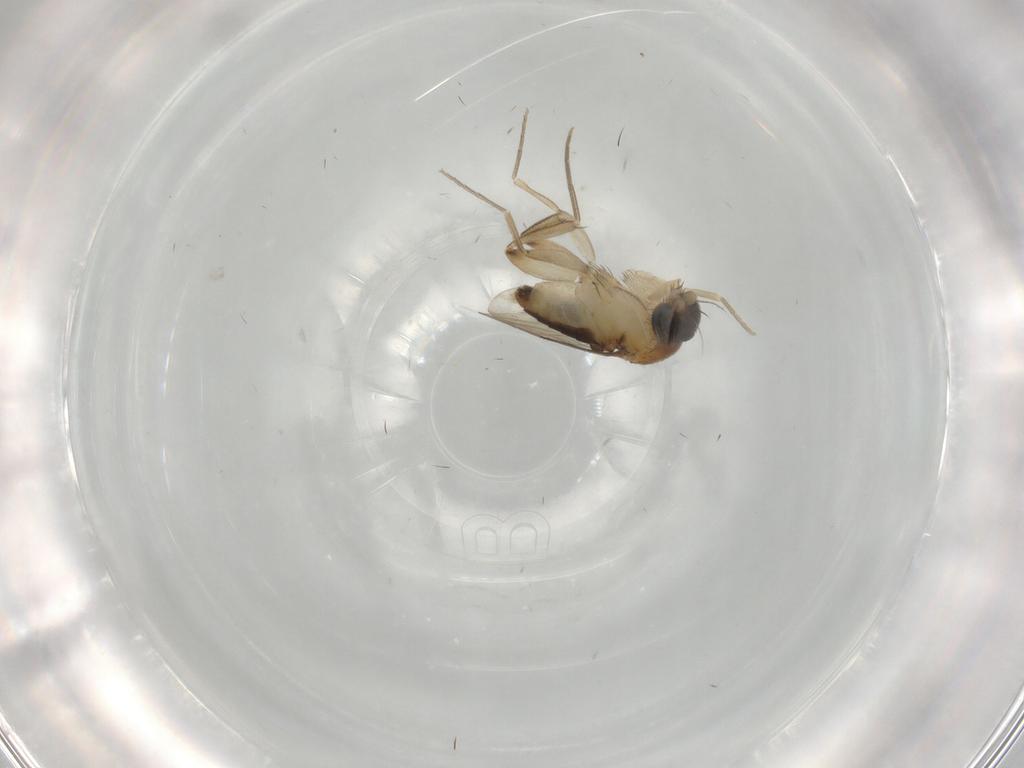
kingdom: Animalia
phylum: Arthropoda
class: Insecta
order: Diptera
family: Phoridae
